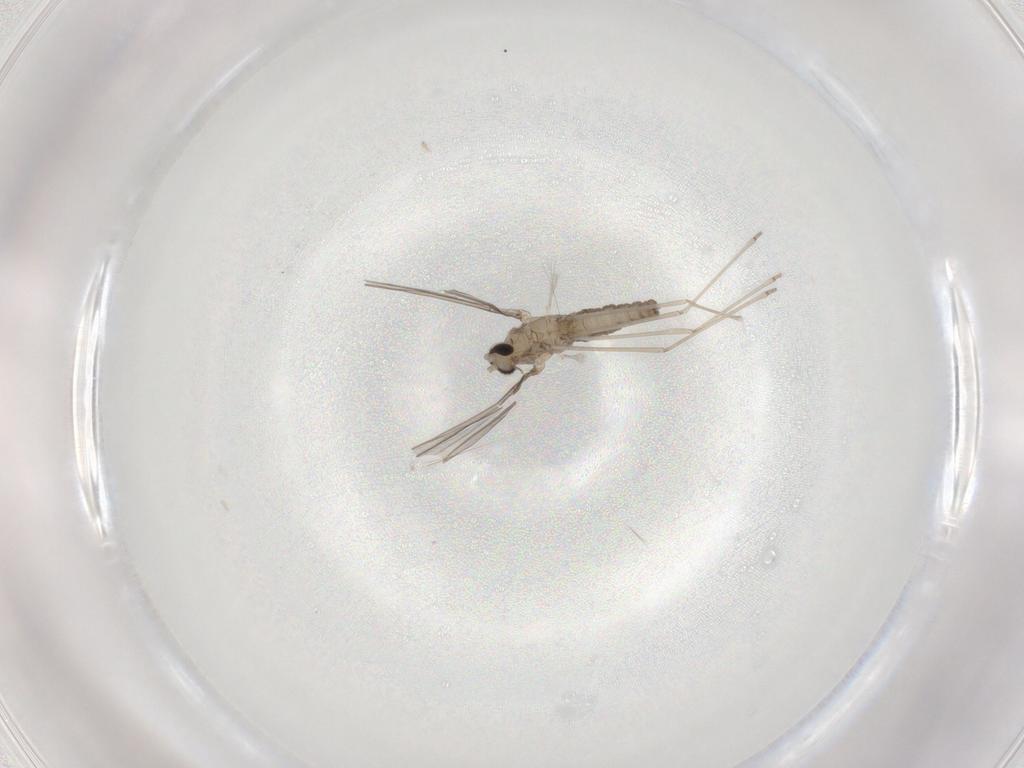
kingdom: Animalia
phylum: Arthropoda
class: Insecta
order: Diptera
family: Cecidomyiidae
